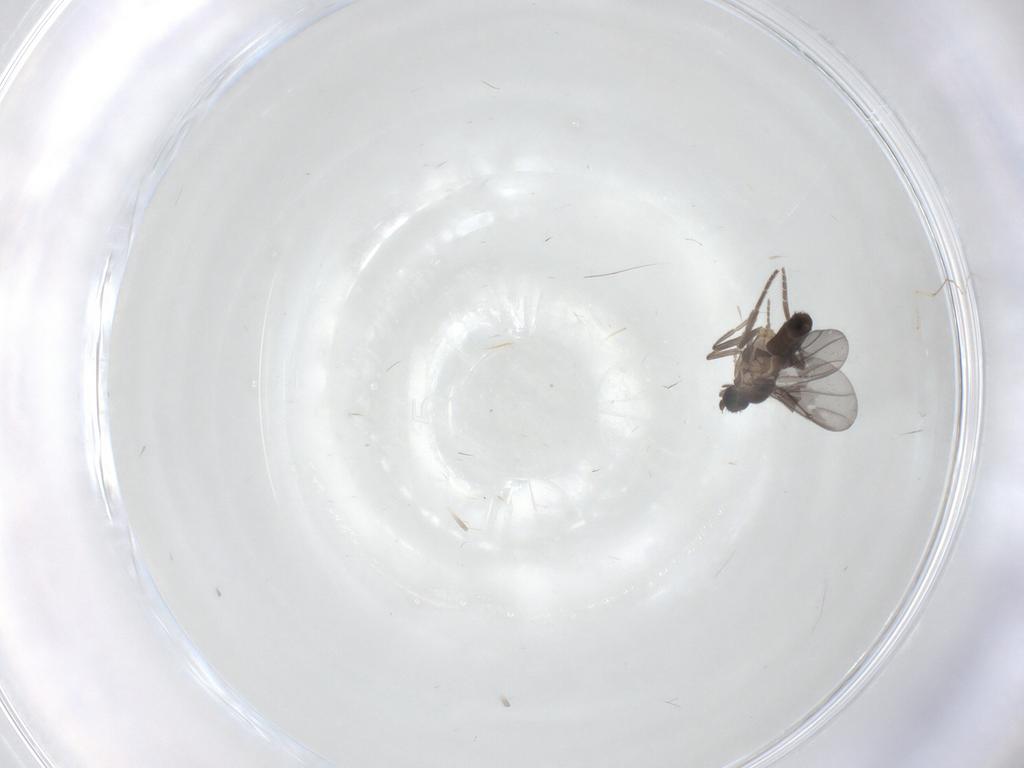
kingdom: Animalia
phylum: Arthropoda
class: Insecta
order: Diptera
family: Cecidomyiidae
